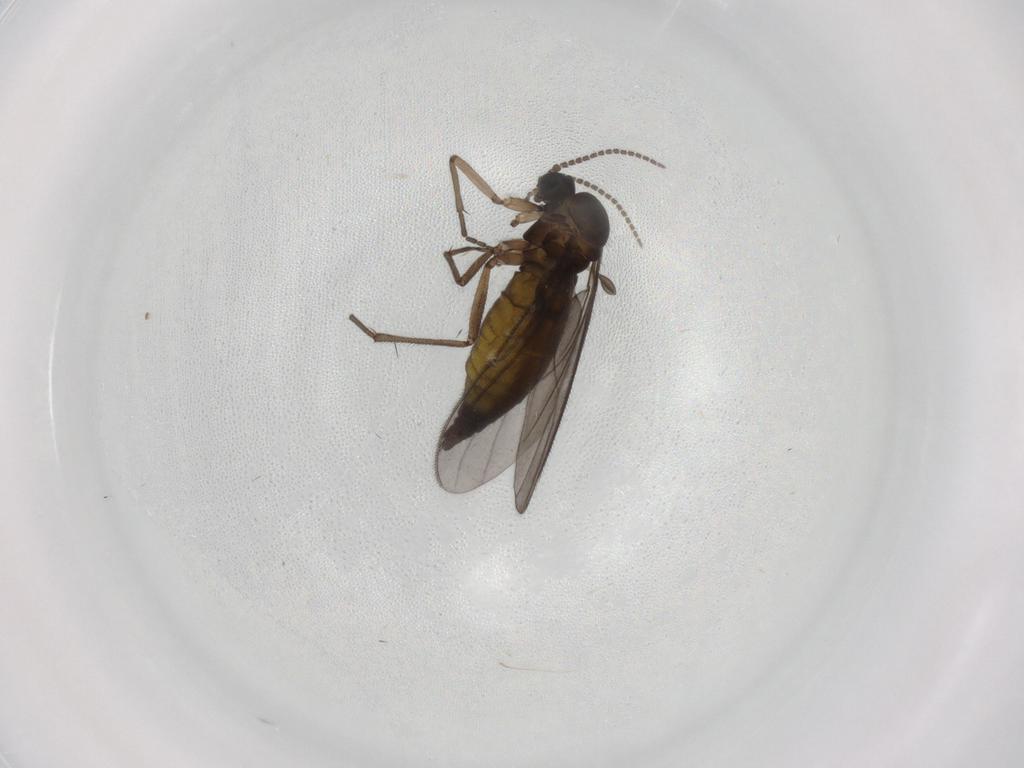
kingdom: Animalia
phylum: Arthropoda
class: Insecta
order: Diptera
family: Sciaridae
